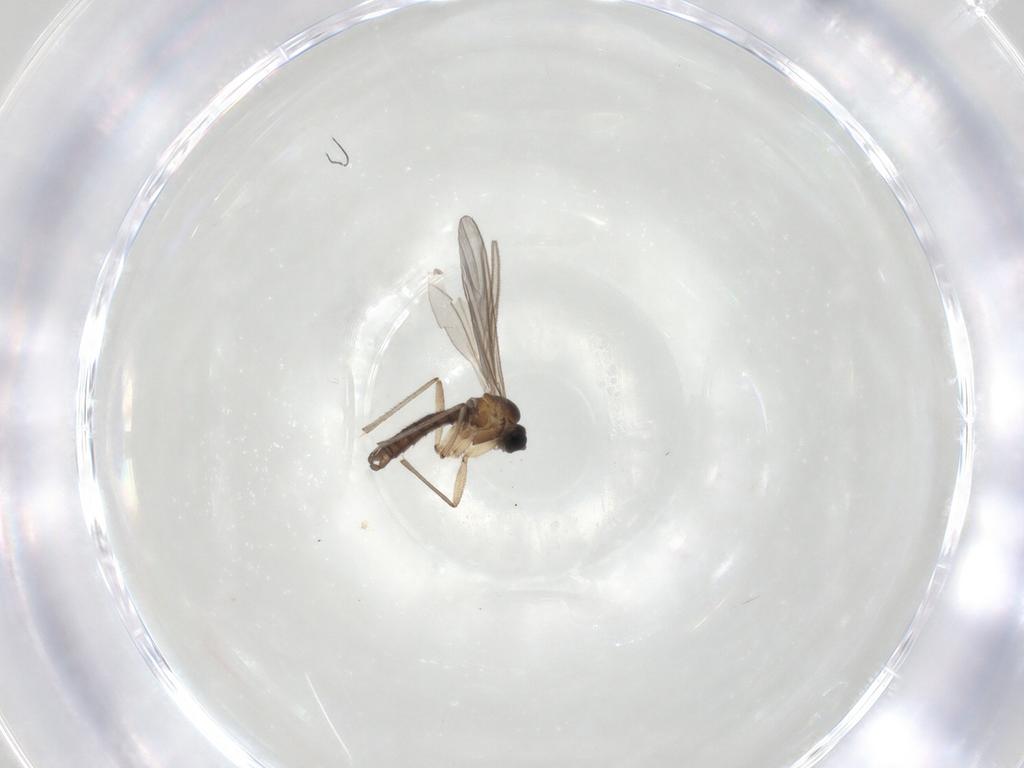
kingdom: Animalia
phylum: Arthropoda
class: Insecta
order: Diptera
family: Sciaridae
